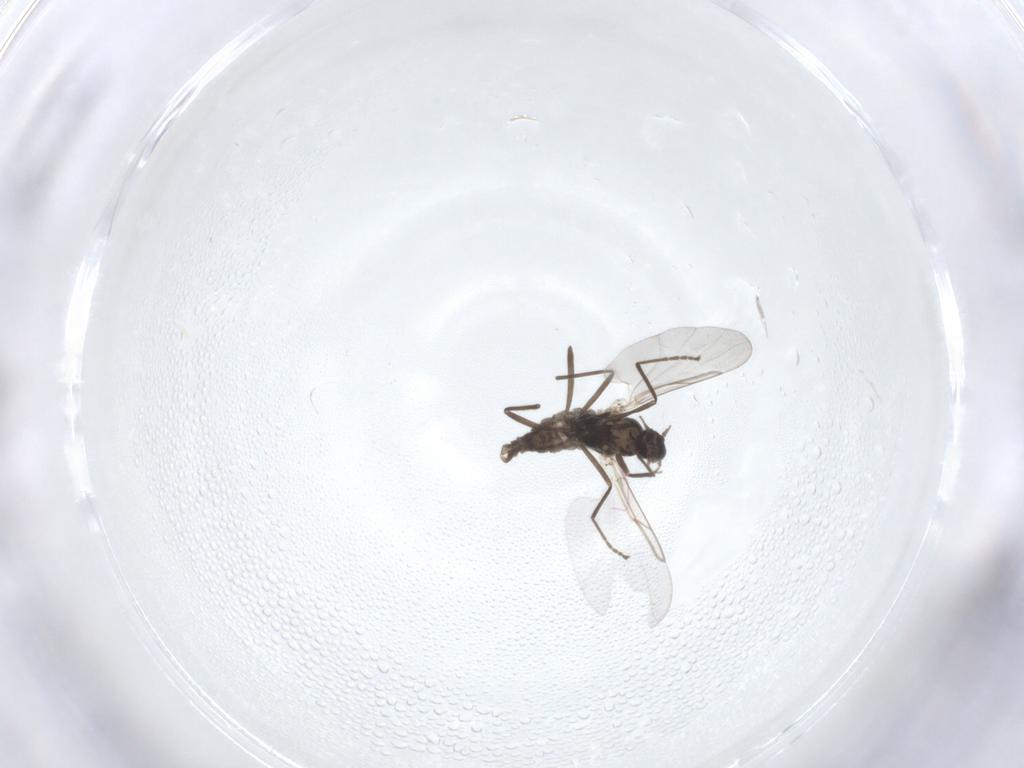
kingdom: Animalia
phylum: Arthropoda
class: Insecta
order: Diptera
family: Cecidomyiidae
